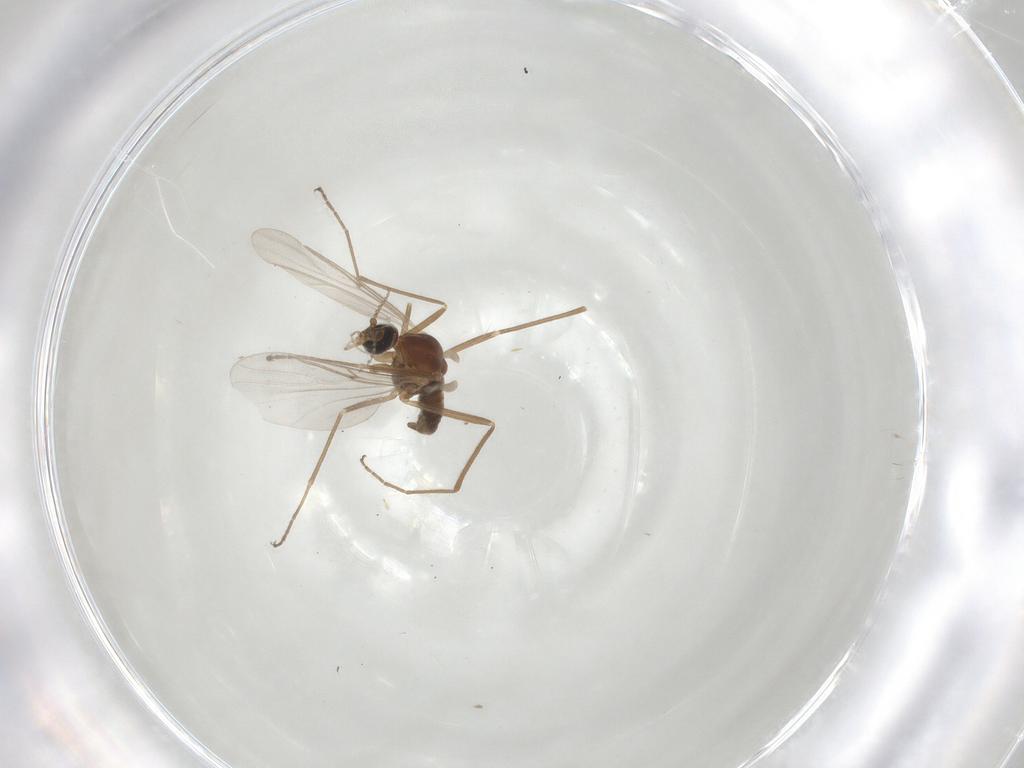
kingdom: Animalia
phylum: Arthropoda
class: Insecta
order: Diptera
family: Cecidomyiidae
